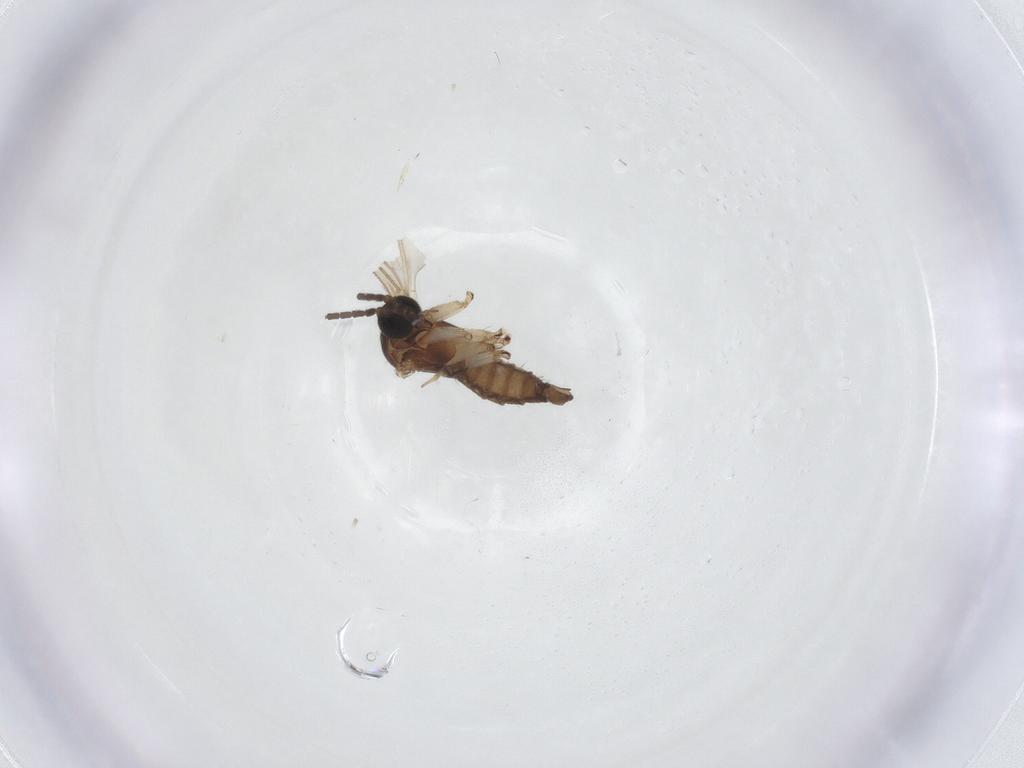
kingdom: Animalia
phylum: Arthropoda
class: Insecta
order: Diptera
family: Sciaridae
